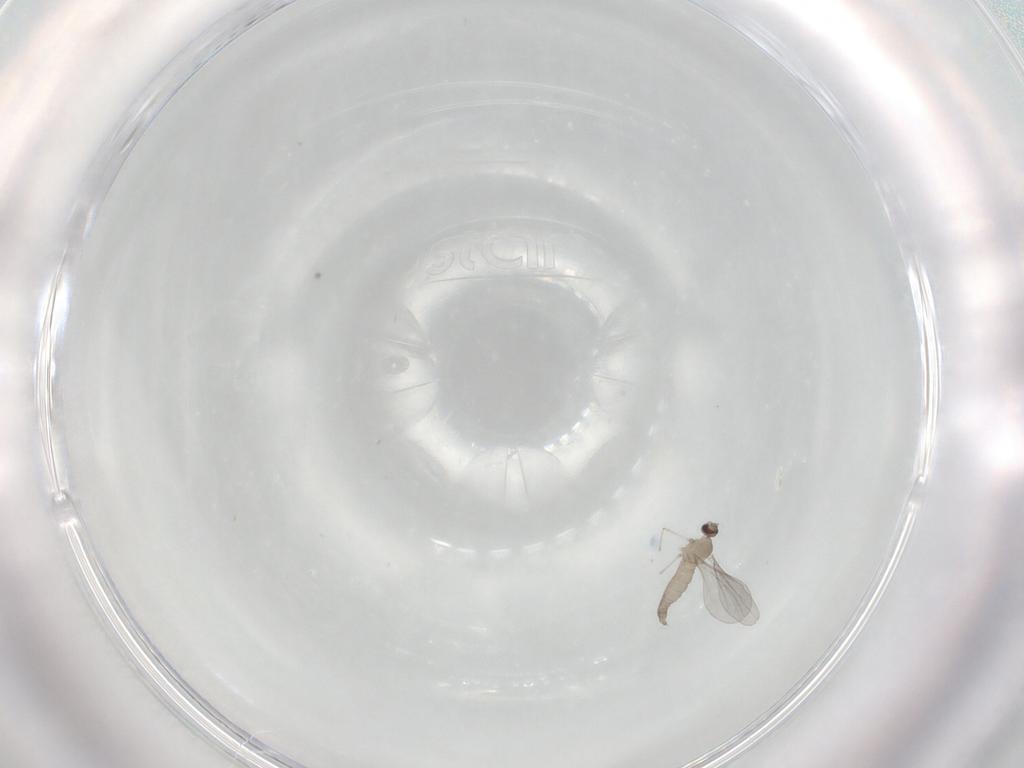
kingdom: Animalia
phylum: Arthropoda
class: Insecta
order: Diptera
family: Cecidomyiidae
